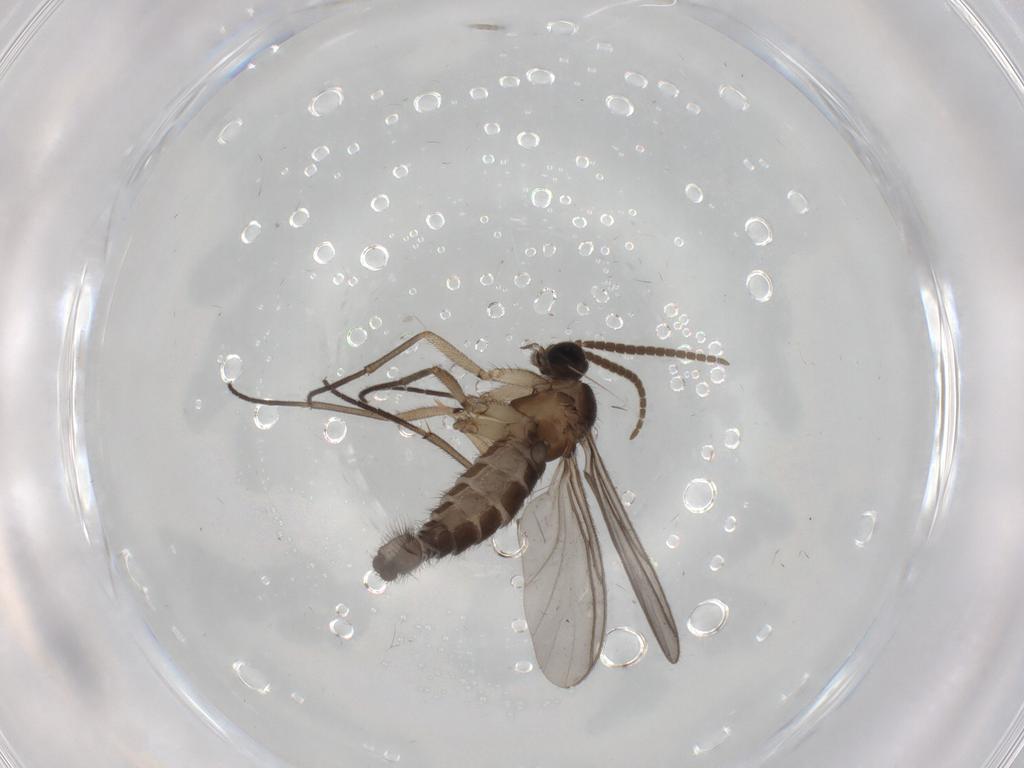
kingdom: Animalia
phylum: Arthropoda
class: Insecta
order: Diptera
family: Cecidomyiidae
